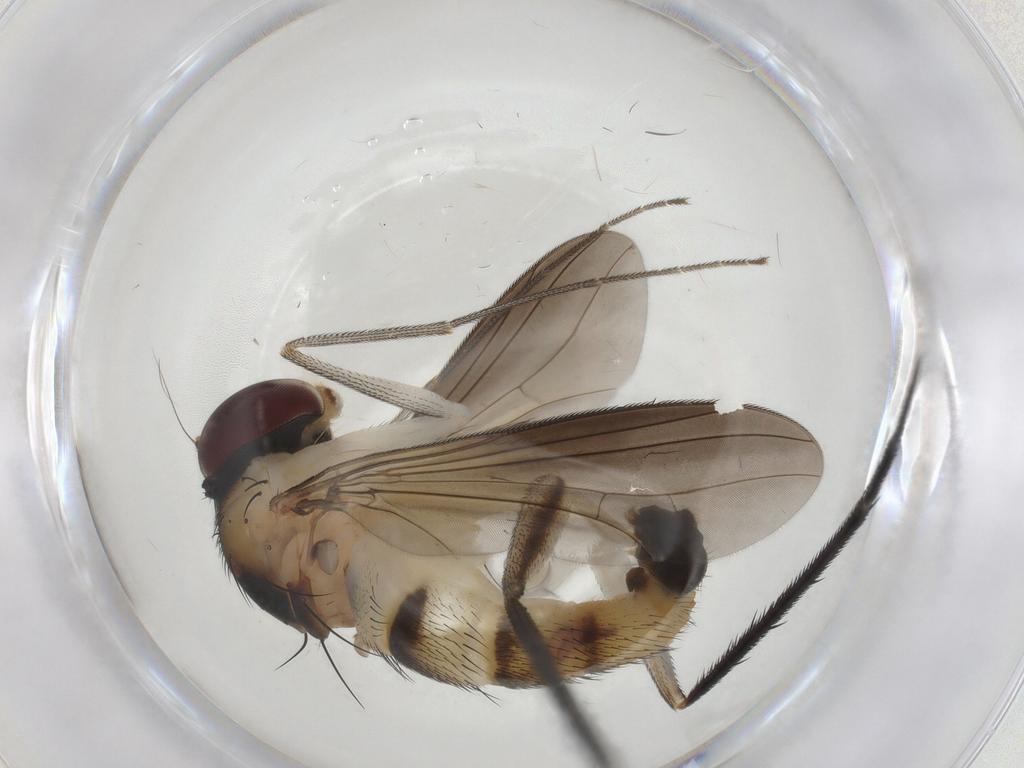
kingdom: Animalia
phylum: Arthropoda
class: Insecta
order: Diptera
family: Dolichopodidae
